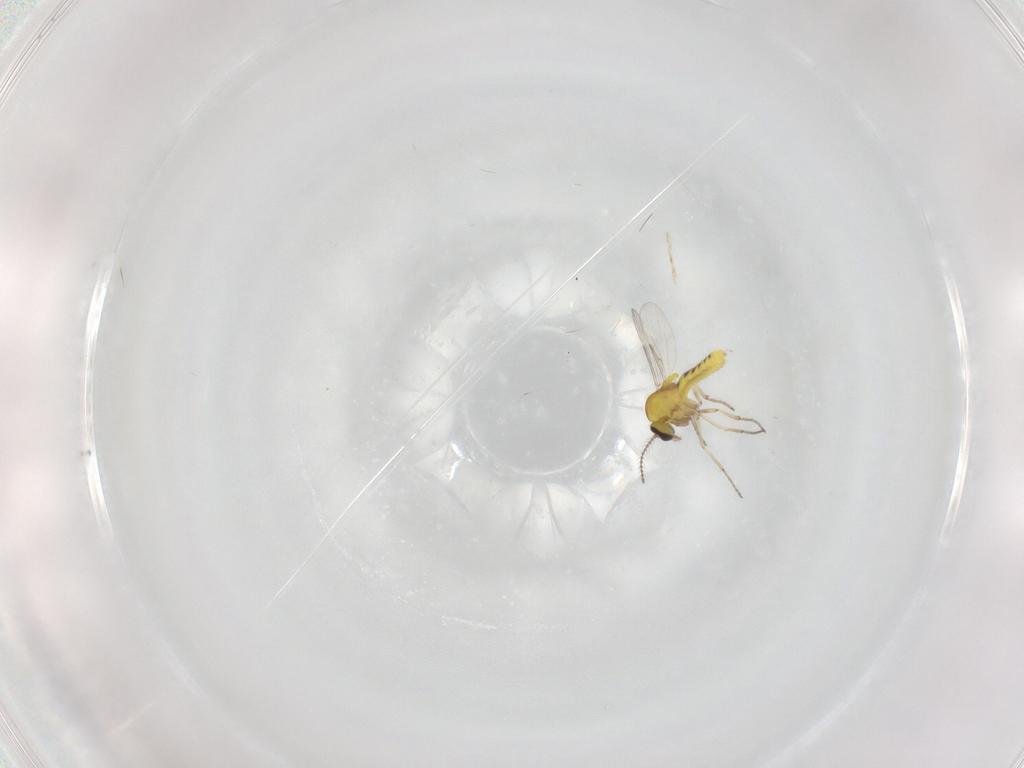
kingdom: Animalia
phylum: Arthropoda
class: Insecta
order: Diptera
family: Ceratopogonidae
